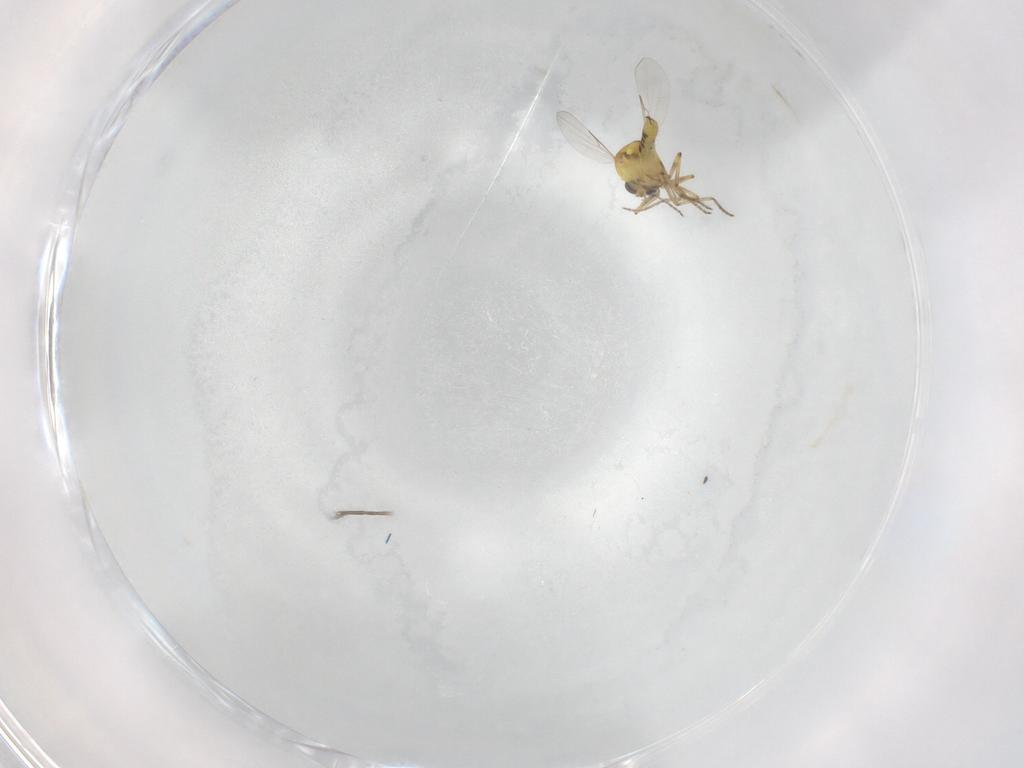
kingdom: Animalia
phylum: Arthropoda
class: Insecta
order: Diptera
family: Ceratopogonidae
